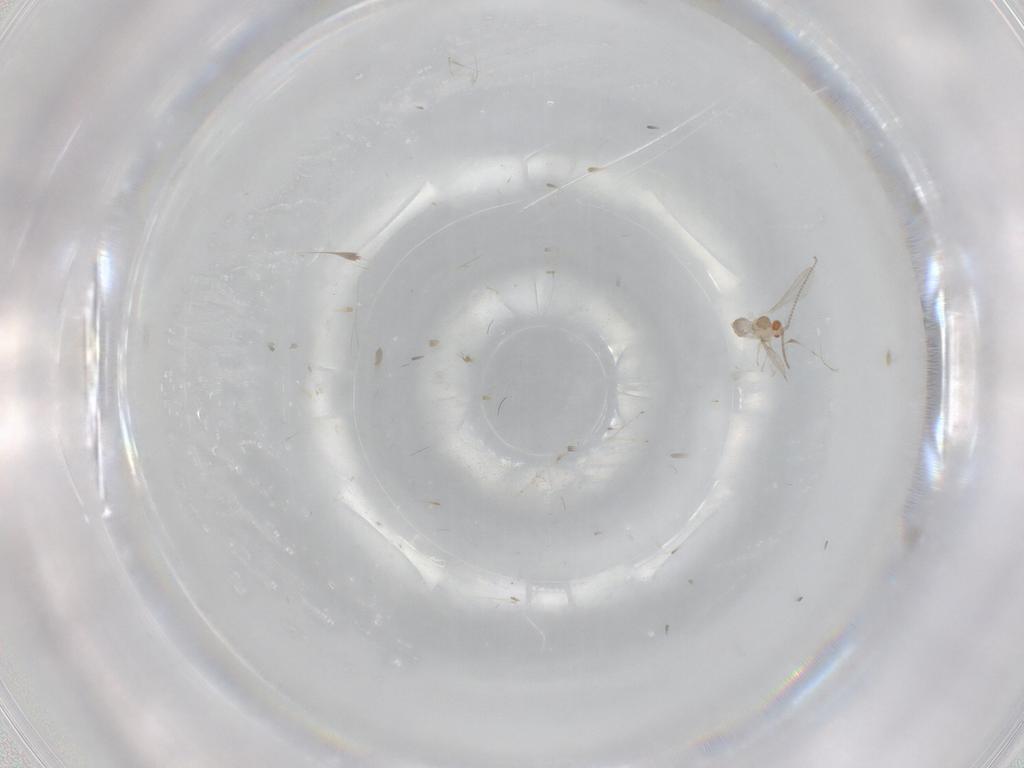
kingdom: Animalia
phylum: Arthropoda
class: Insecta
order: Diptera
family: Cecidomyiidae
